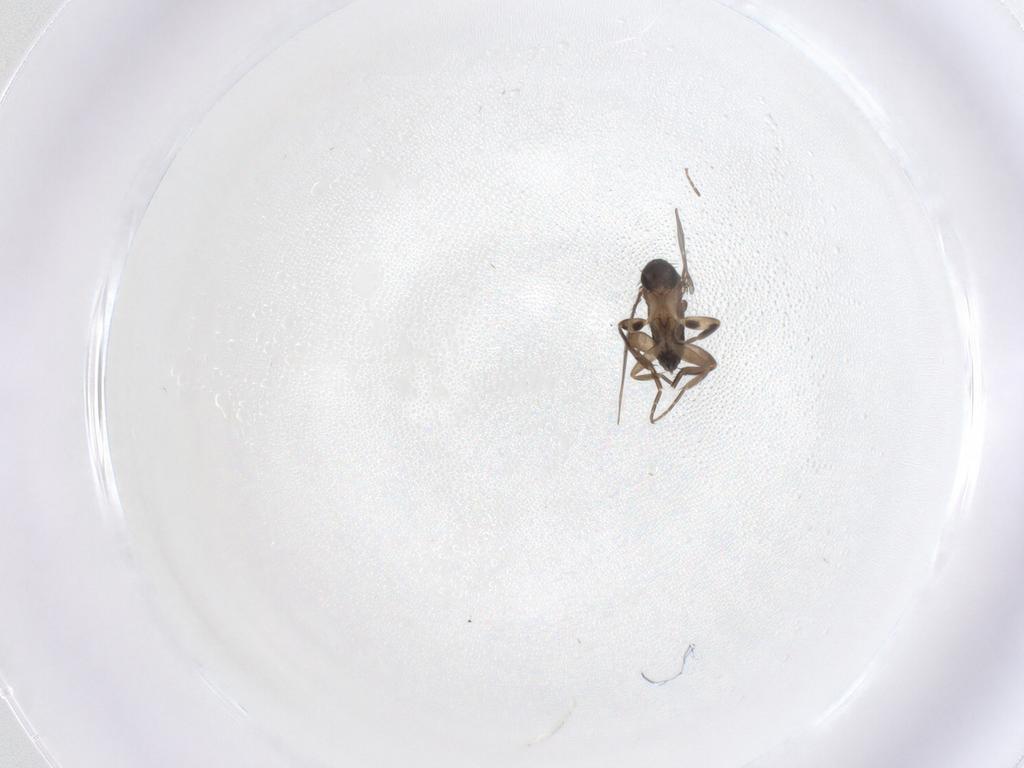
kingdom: Animalia
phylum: Arthropoda
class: Insecta
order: Diptera
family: Phoridae
